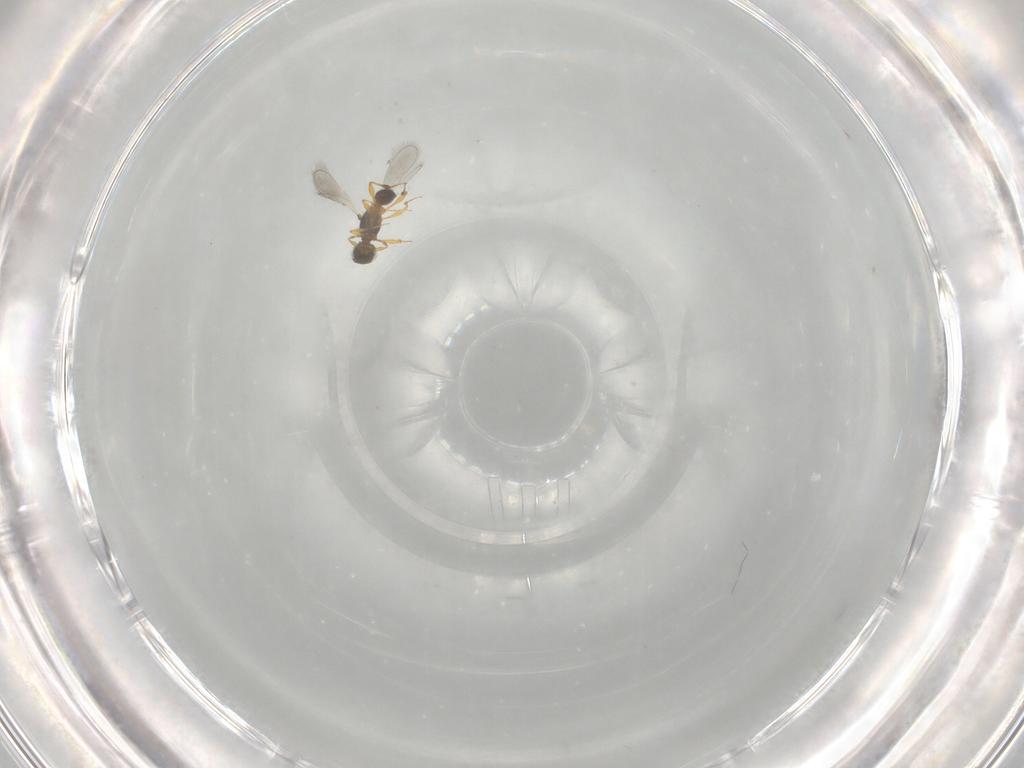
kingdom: Animalia
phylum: Arthropoda
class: Insecta
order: Hymenoptera
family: Platygastridae
